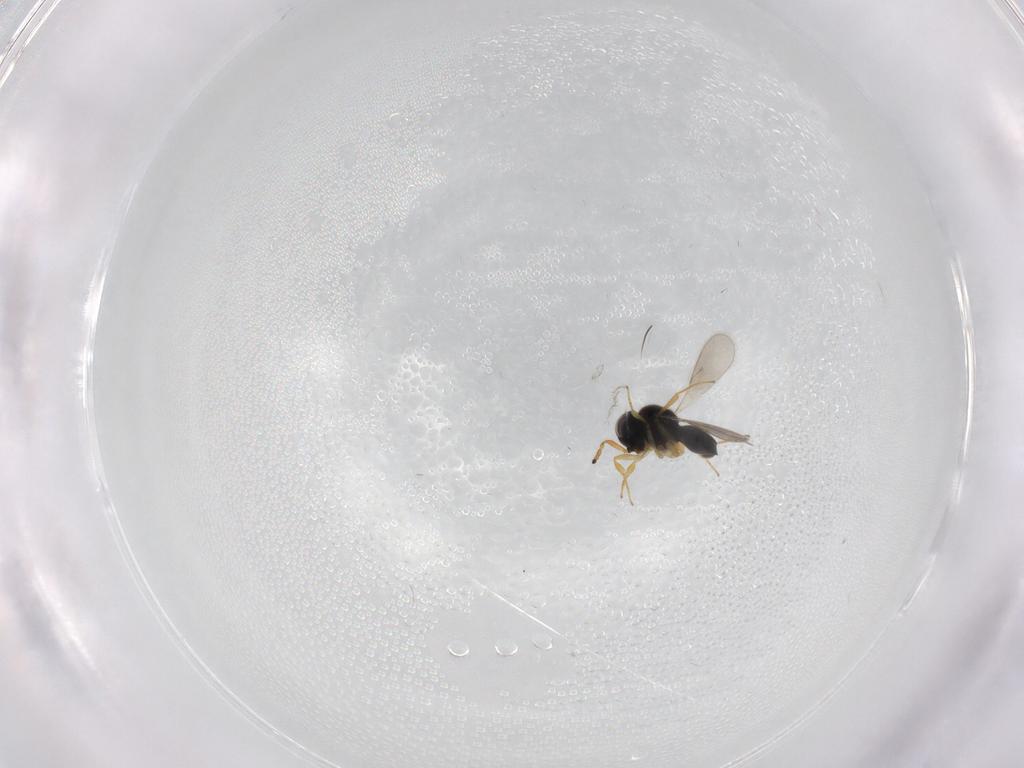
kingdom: Animalia
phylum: Arthropoda
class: Insecta
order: Hymenoptera
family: Scelionidae
